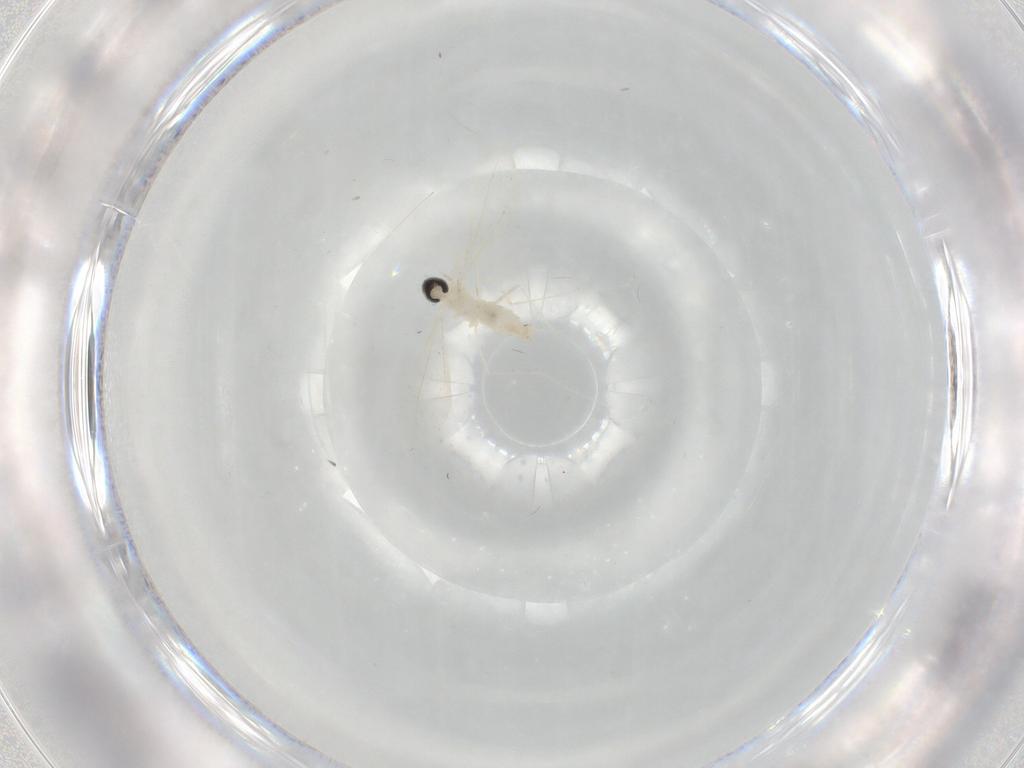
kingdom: Animalia
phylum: Arthropoda
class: Insecta
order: Diptera
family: Cecidomyiidae
